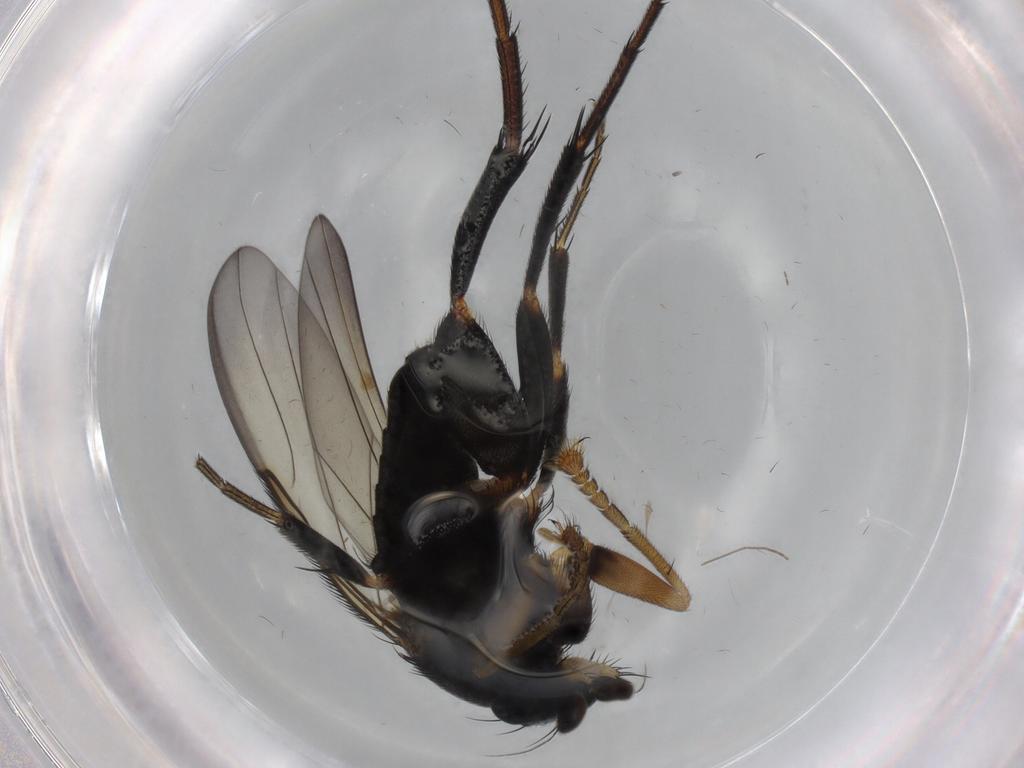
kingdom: Animalia
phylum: Arthropoda
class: Insecta
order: Diptera
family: Phoridae
